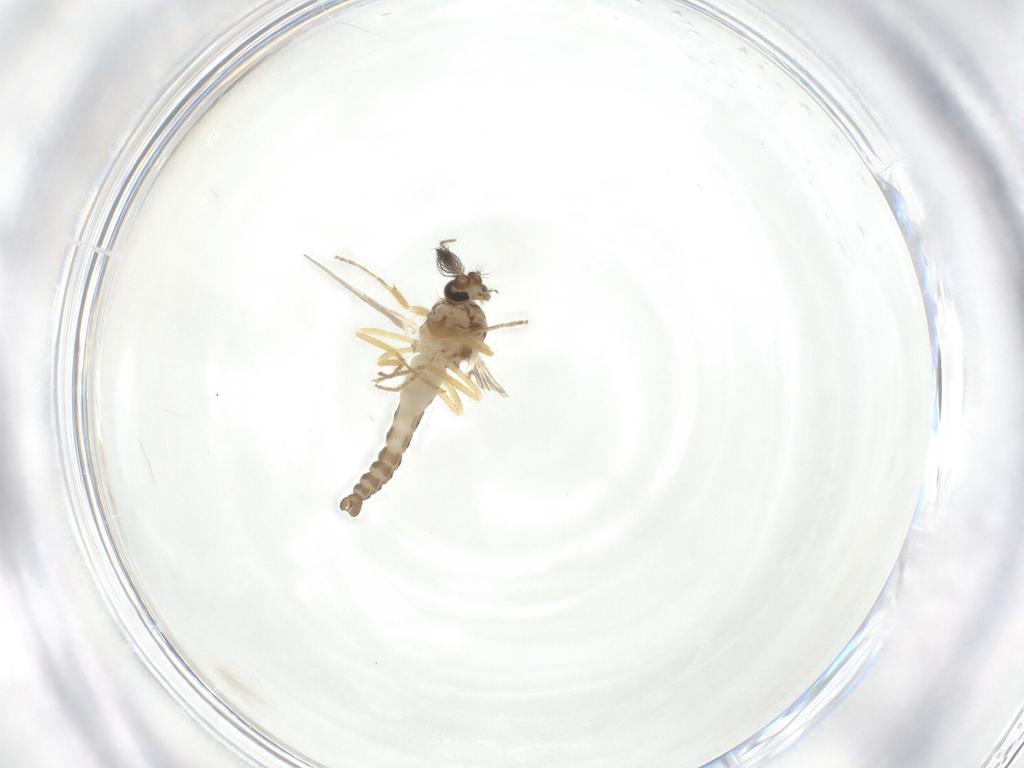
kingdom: Animalia
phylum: Arthropoda
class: Insecta
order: Diptera
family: Ceratopogonidae
